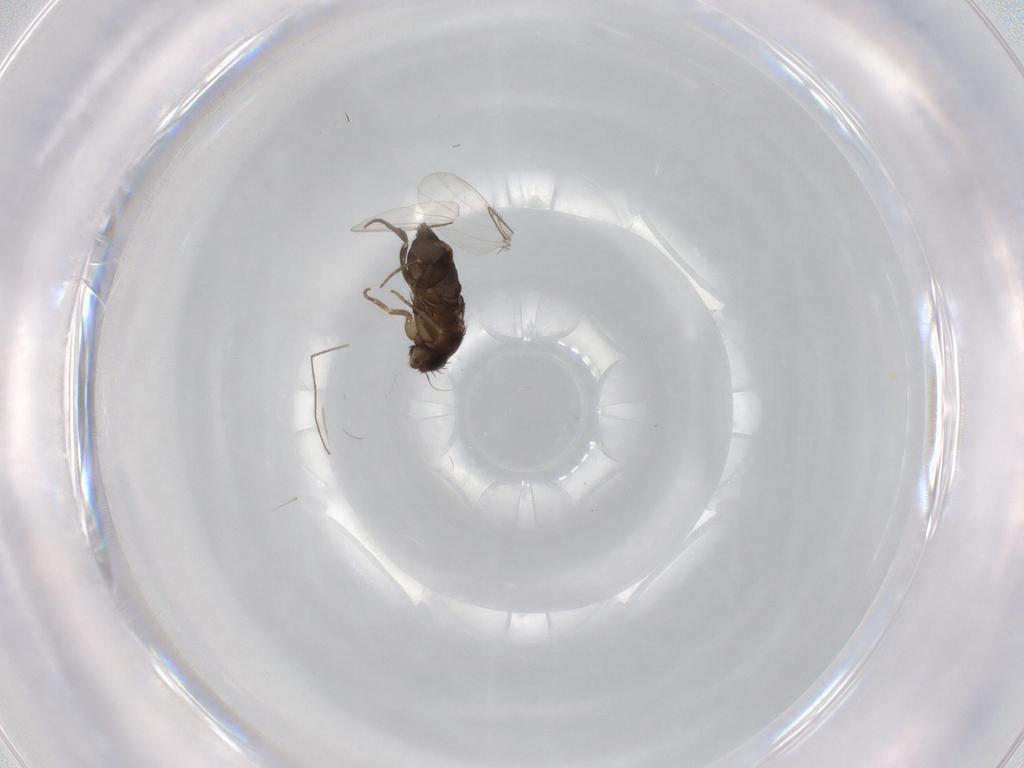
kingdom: Animalia
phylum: Arthropoda
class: Insecta
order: Diptera
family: Phoridae
